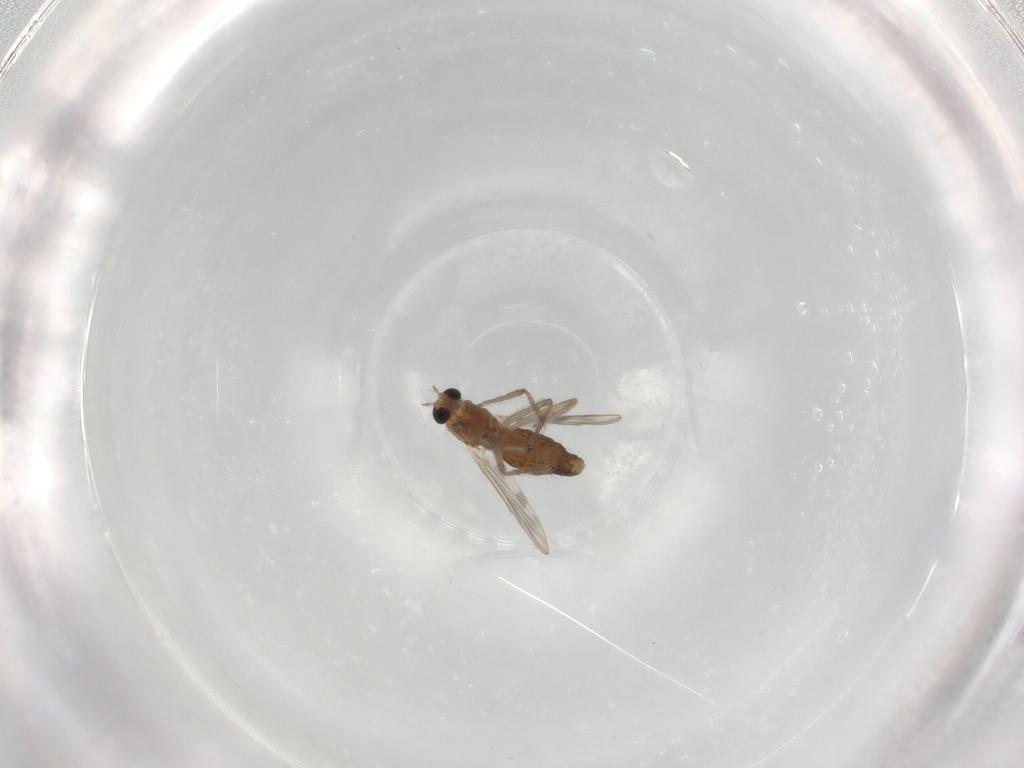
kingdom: Animalia
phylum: Arthropoda
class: Insecta
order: Diptera
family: Chironomidae
